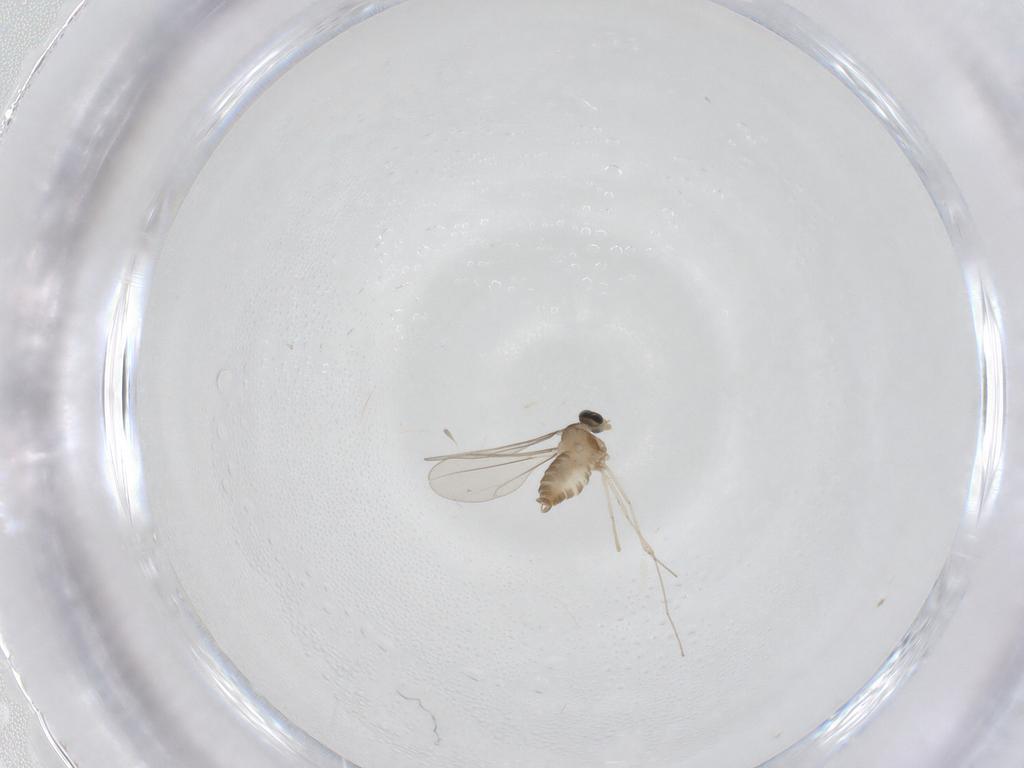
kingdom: Animalia
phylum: Arthropoda
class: Insecta
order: Diptera
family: Cecidomyiidae
